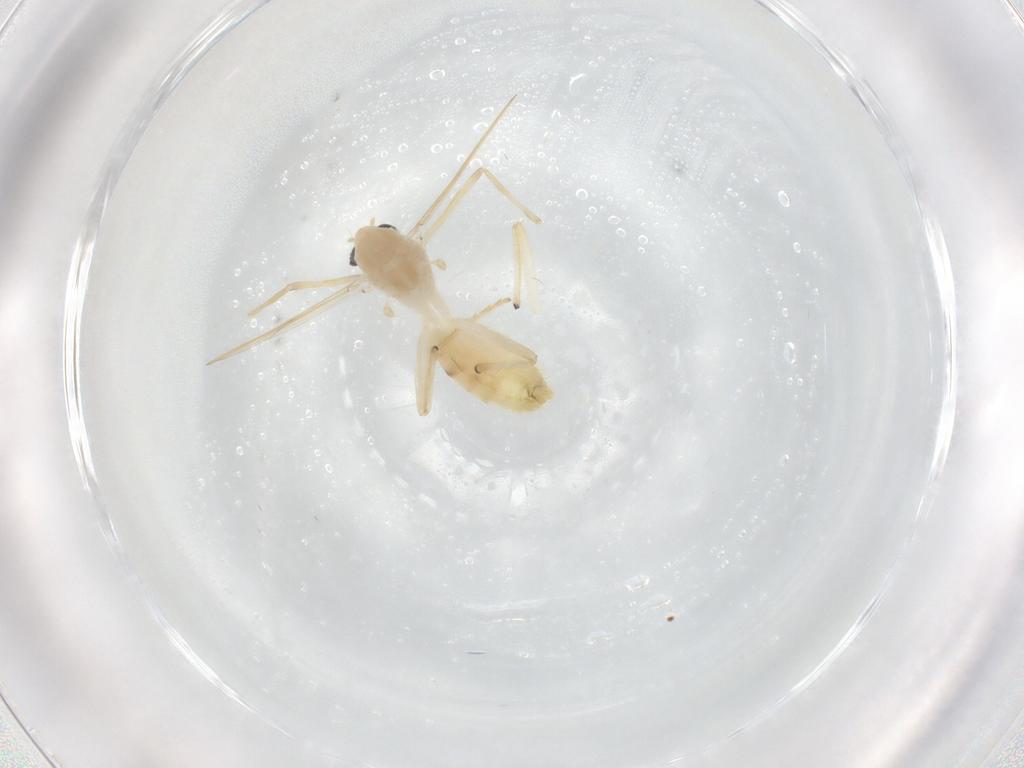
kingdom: Animalia
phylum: Arthropoda
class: Insecta
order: Diptera
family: Chironomidae
